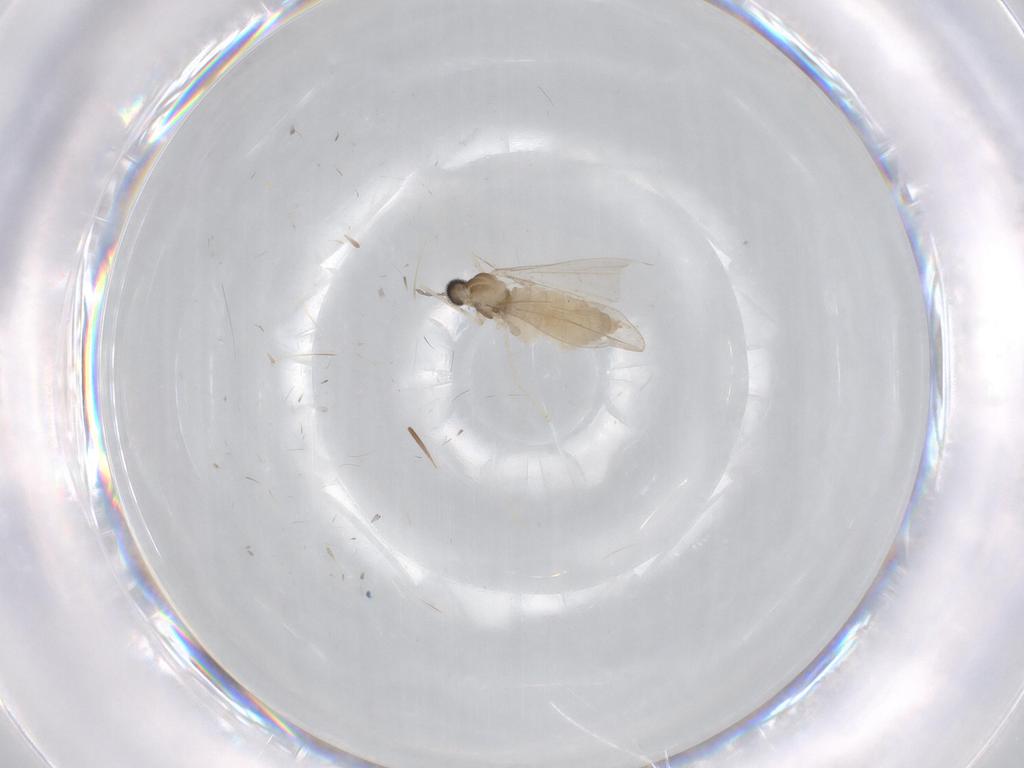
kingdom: Animalia
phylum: Arthropoda
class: Insecta
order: Diptera
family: Cecidomyiidae
